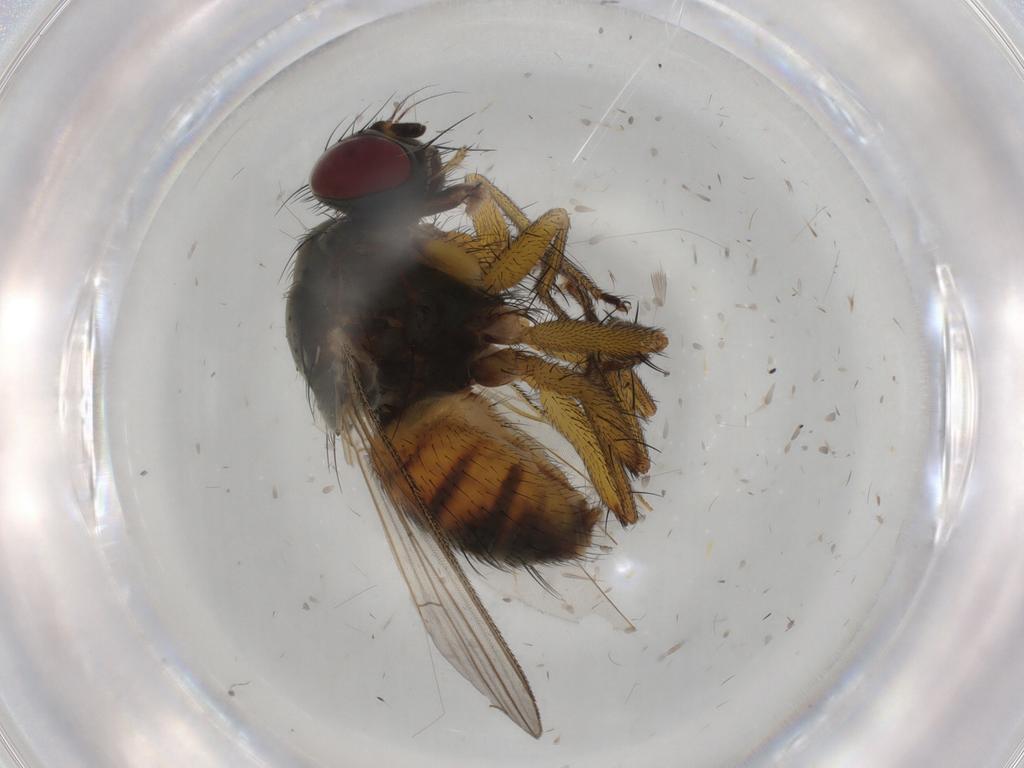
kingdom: Animalia
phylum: Arthropoda
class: Insecta
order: Diptera
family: Muscidae
